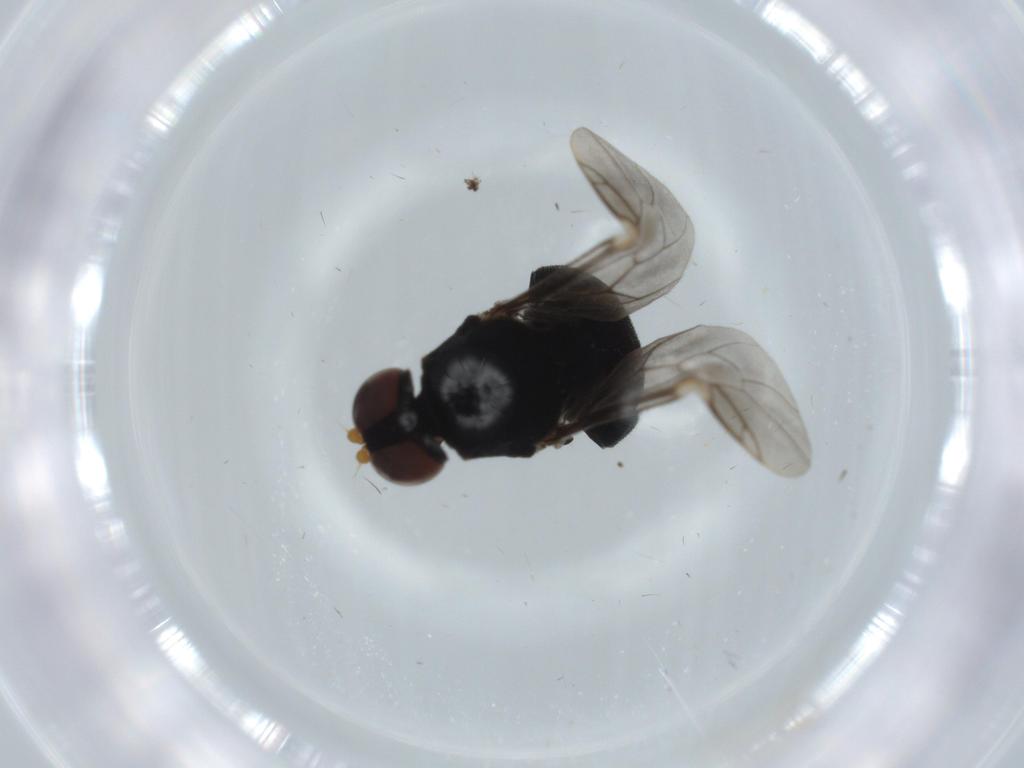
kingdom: Animalia
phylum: Arthropoda
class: Insecta
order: Diptera
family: Stratiomyidae
